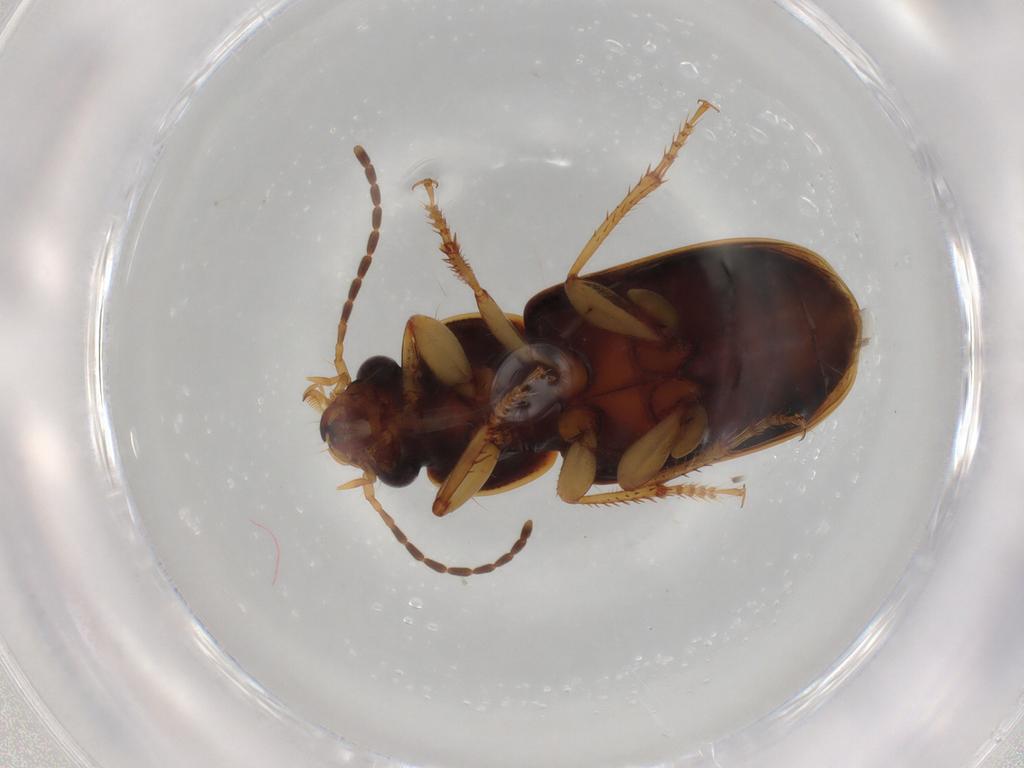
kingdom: Animalia
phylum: Arthropoda
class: Insecta
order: Coleoptera
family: Carabidae
